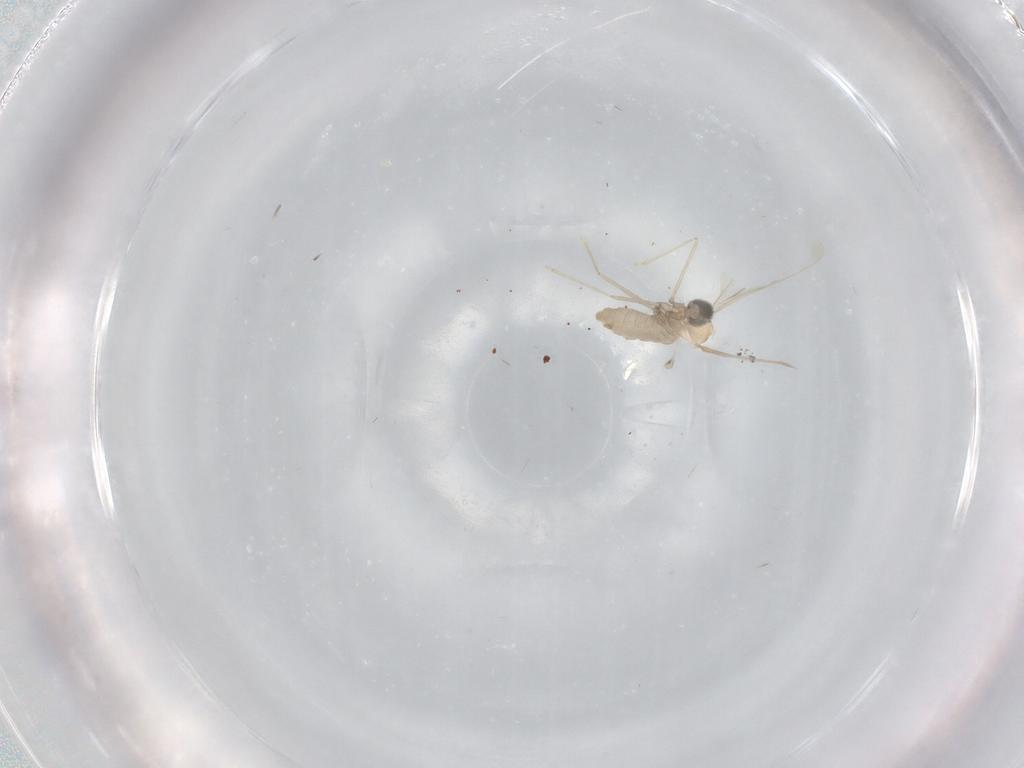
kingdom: Animalia
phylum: Arthropoda
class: Insecta
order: Diptera
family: Cecidomyiidae
